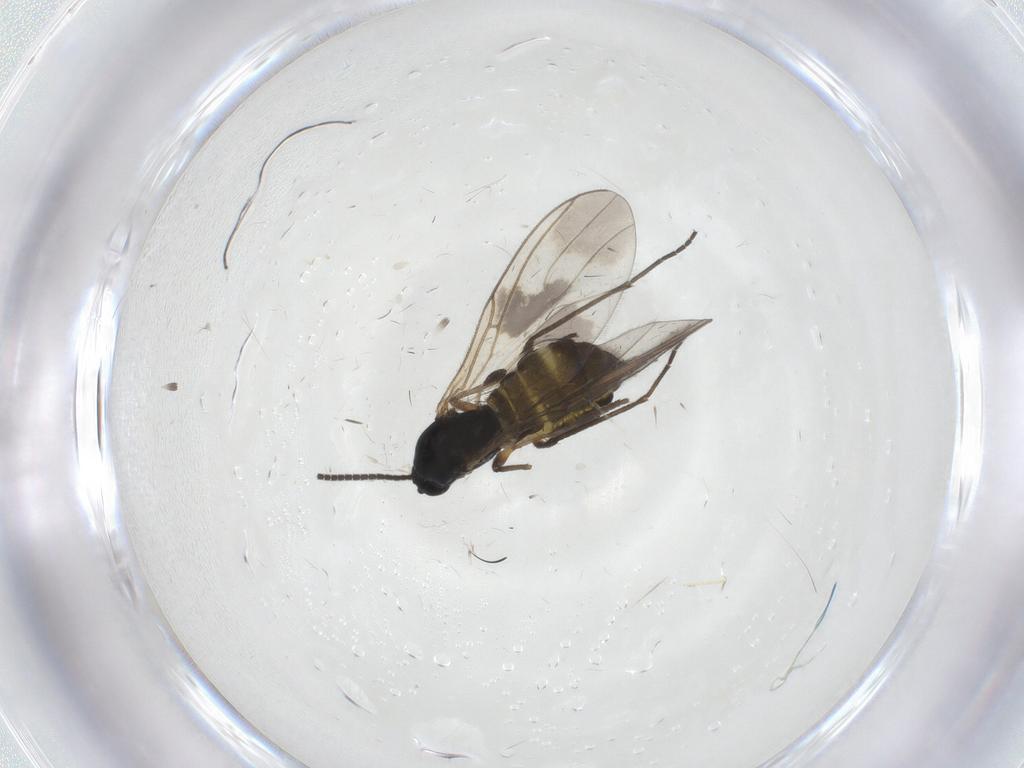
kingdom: Animalia
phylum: Arthropoda
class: Insecta
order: Diptera
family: Sciaridae
